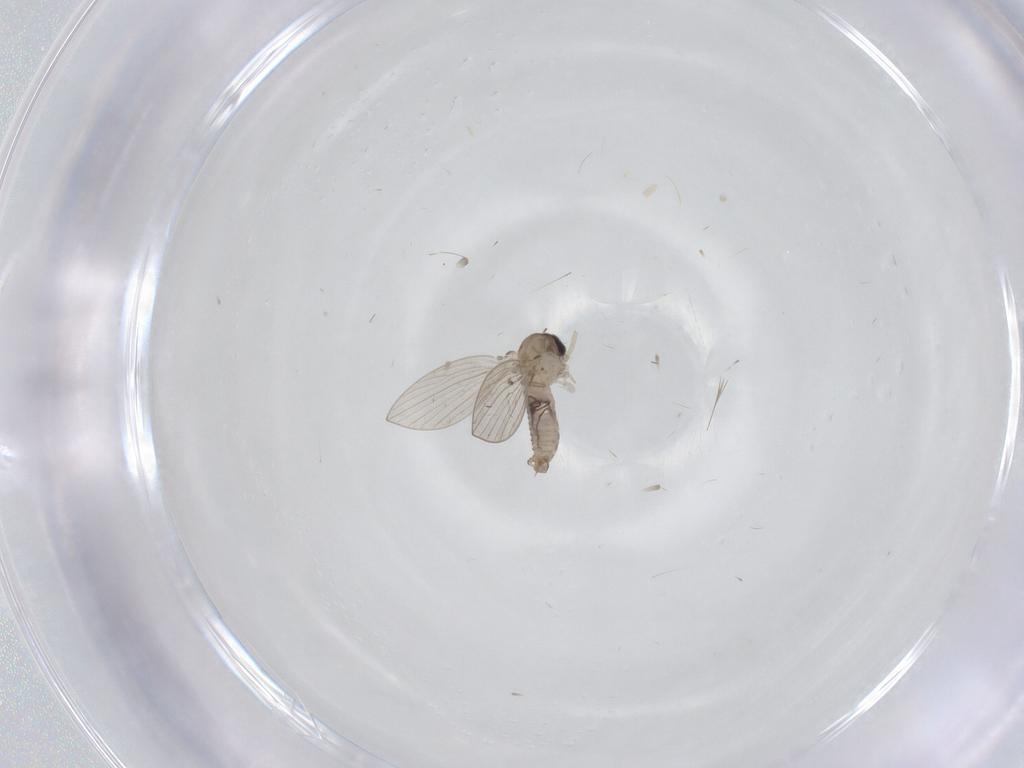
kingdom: Animalia
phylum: Arthropoda
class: Insecta
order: Diptera
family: Psychodidae
